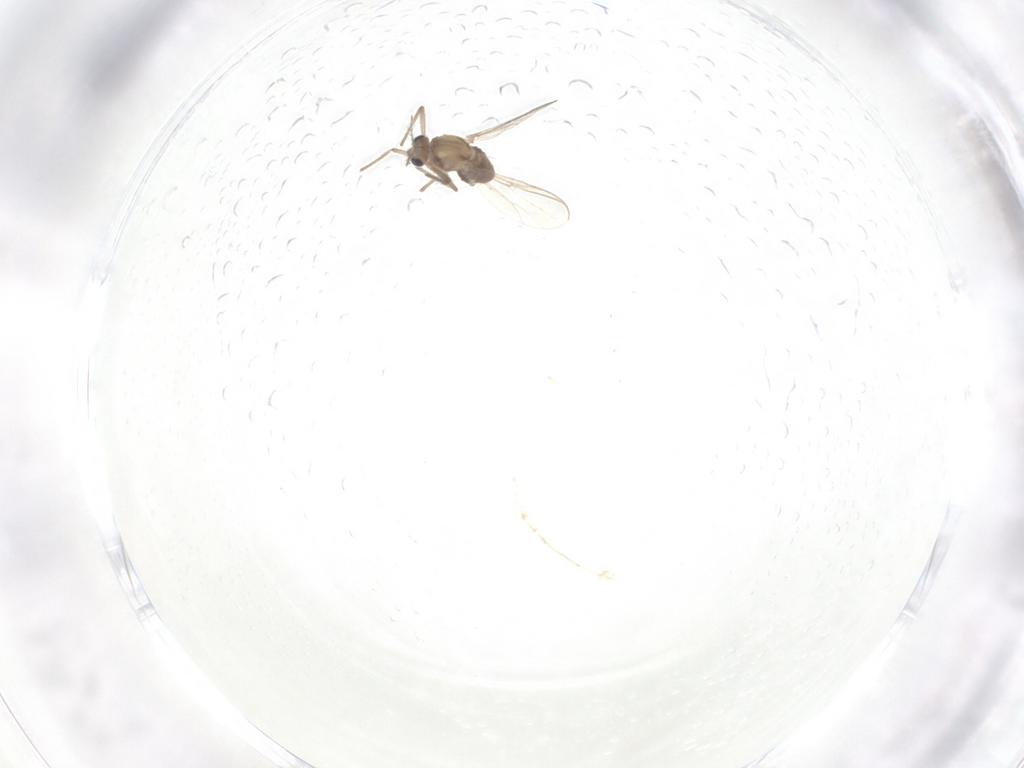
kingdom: Animalia
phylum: Arthropoda
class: Insecta
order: Diptera
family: Chironomidae
